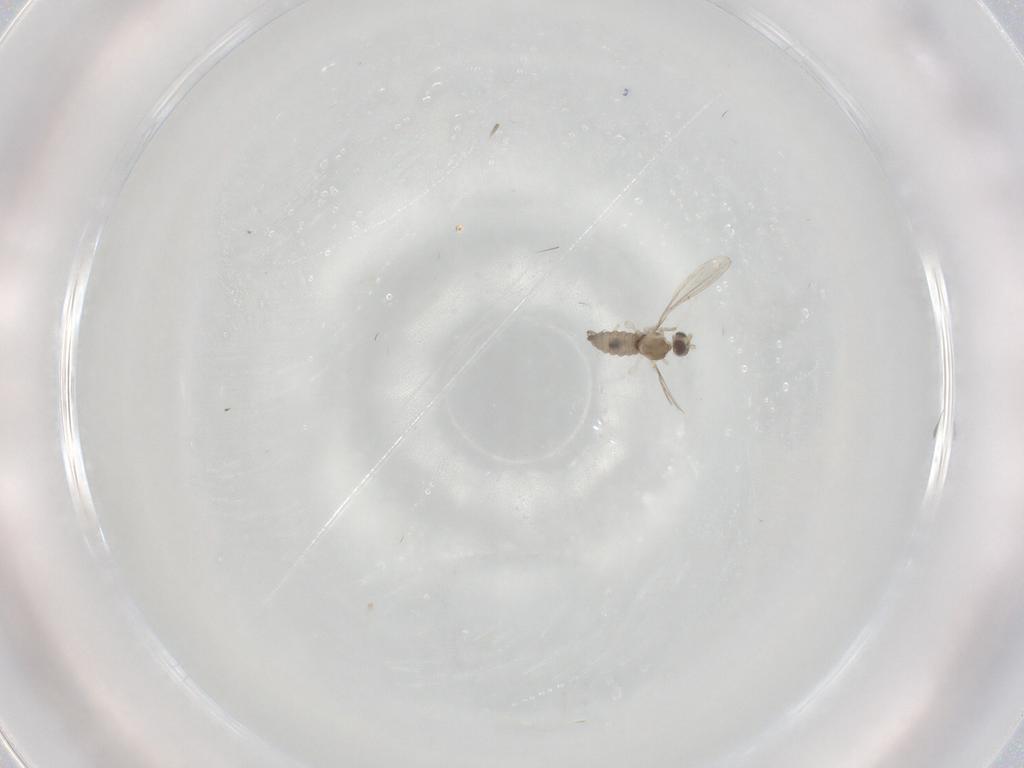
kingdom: Animalia
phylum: Arthropoda
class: Insecta
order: Diptera
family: Cecidomyiidae
